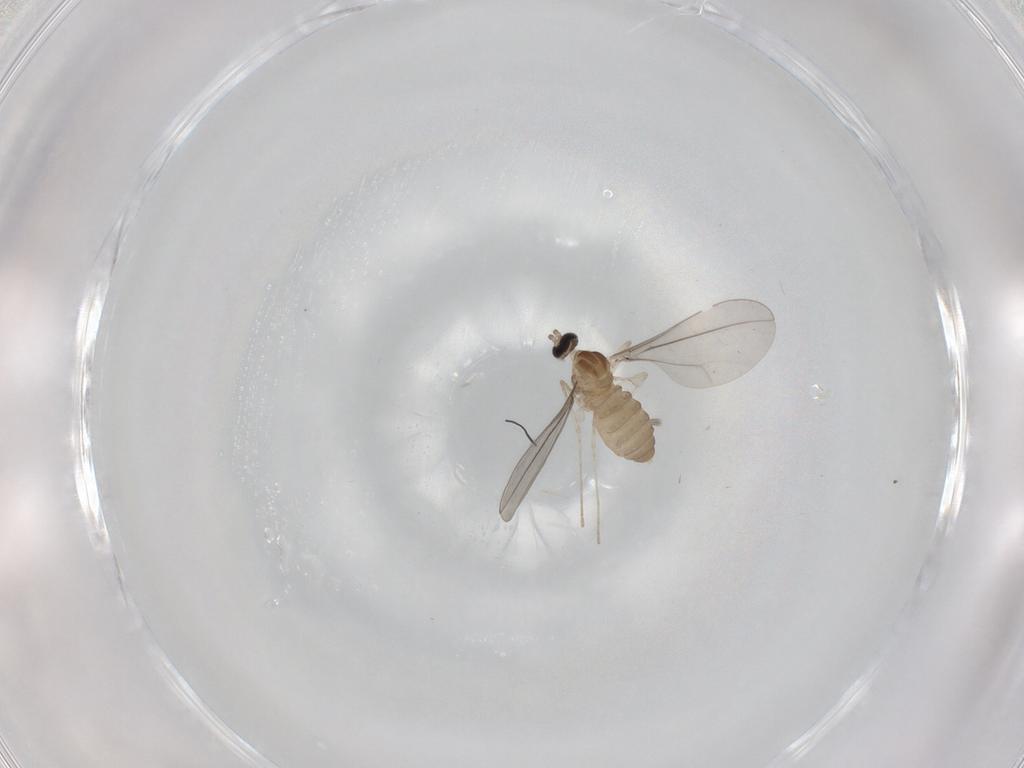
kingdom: Animalia
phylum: Arthropoda
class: Insecta
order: Diptera
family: Cecidomyiidae
